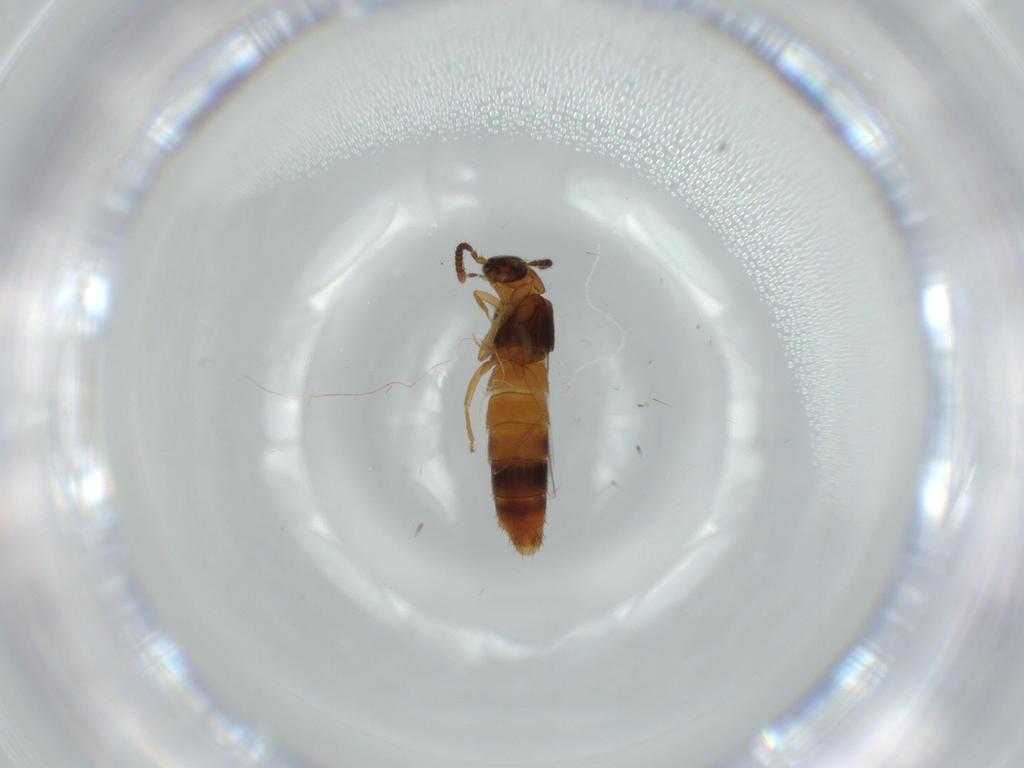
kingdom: Animalia
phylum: Arthropoda
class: Insecta
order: Coleoptera
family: Staphylinidae
